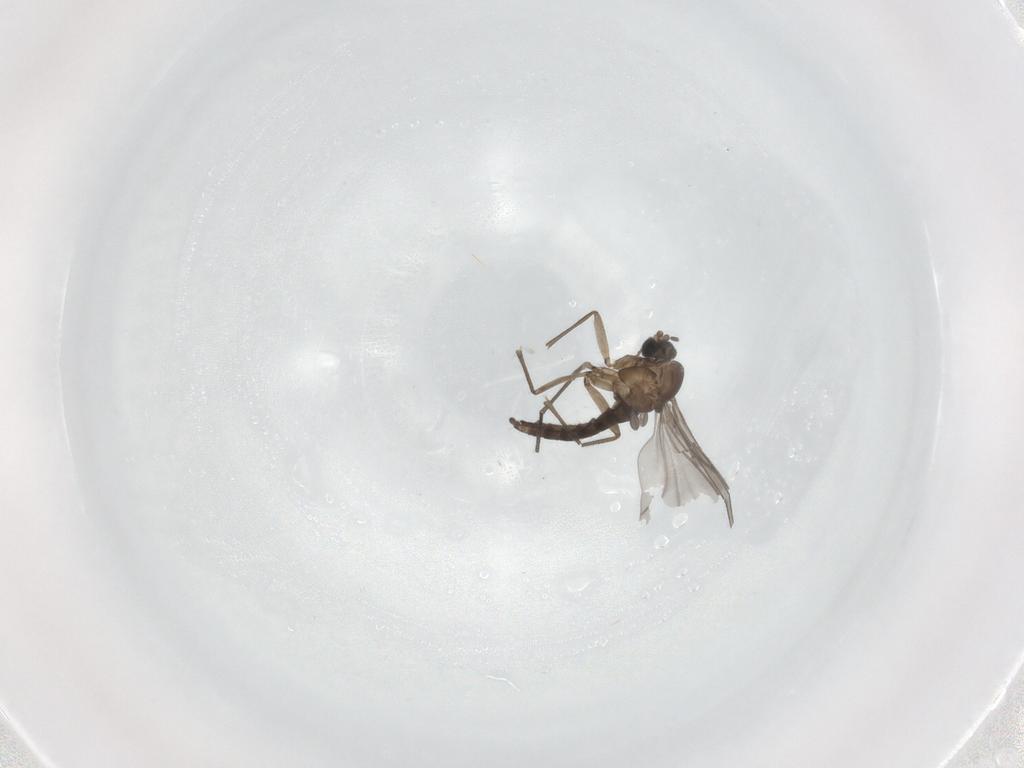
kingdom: Animalia
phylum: Arthropoda
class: Insecta
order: Diptera
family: Sciaridae
